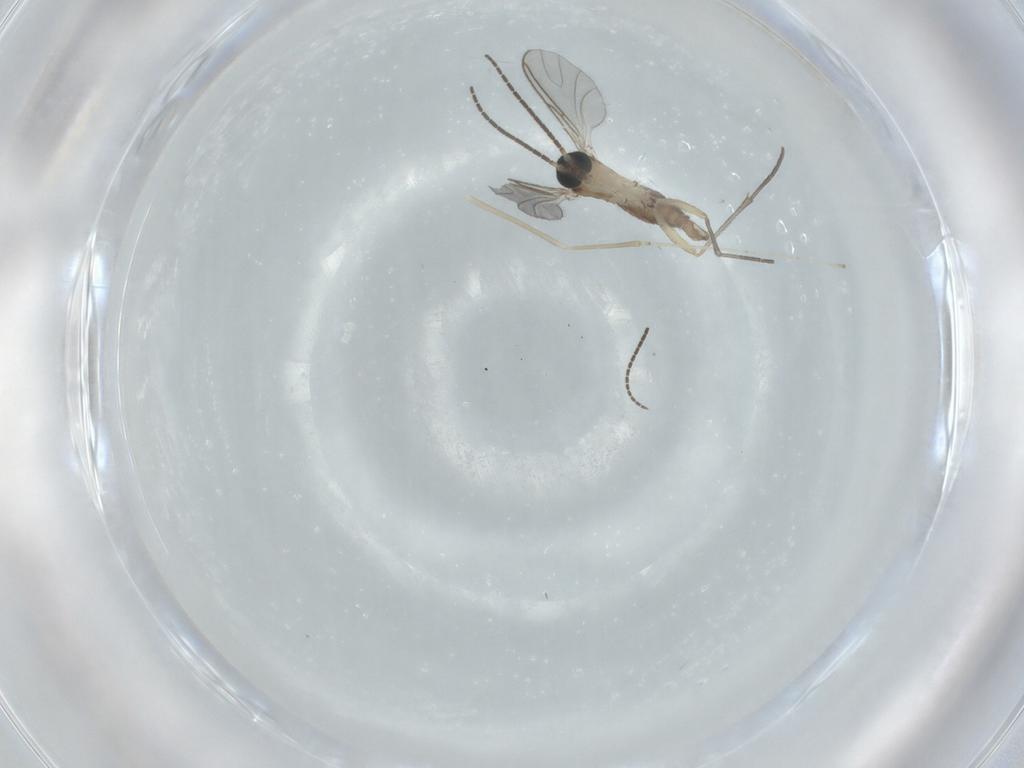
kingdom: Animalia
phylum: Arthropoda
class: Insecta
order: Diptera
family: Cecidomyiidae
